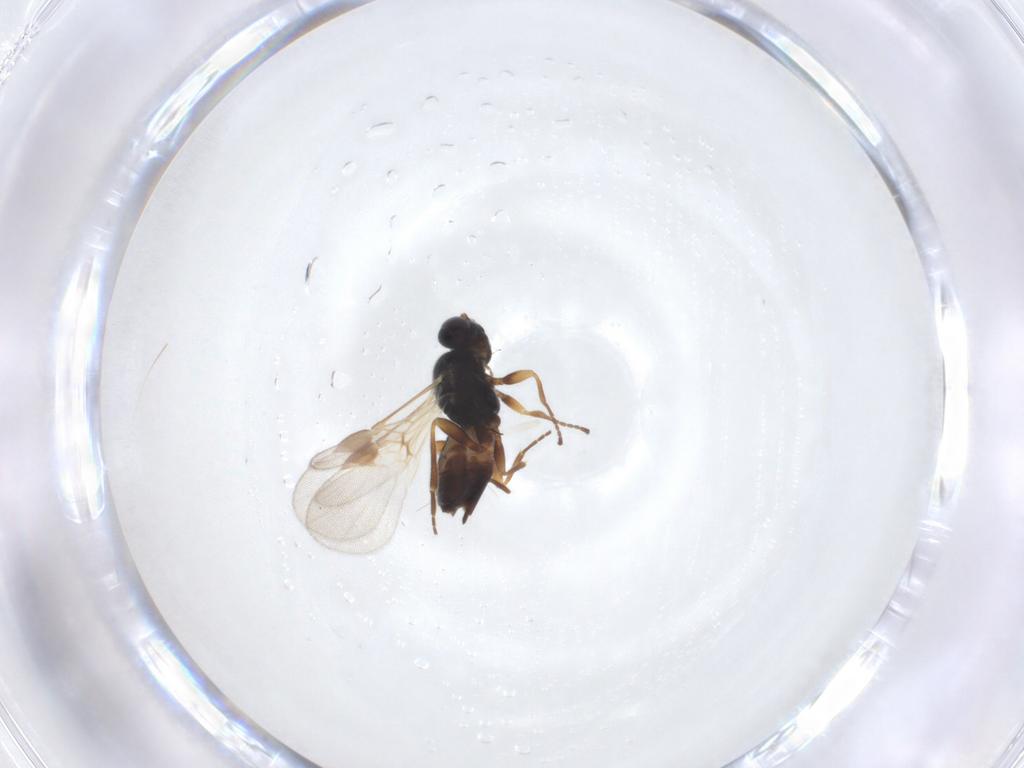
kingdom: Animalia
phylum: Arthropoda
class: Insecta
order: Hymenoptera
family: Braconidae
